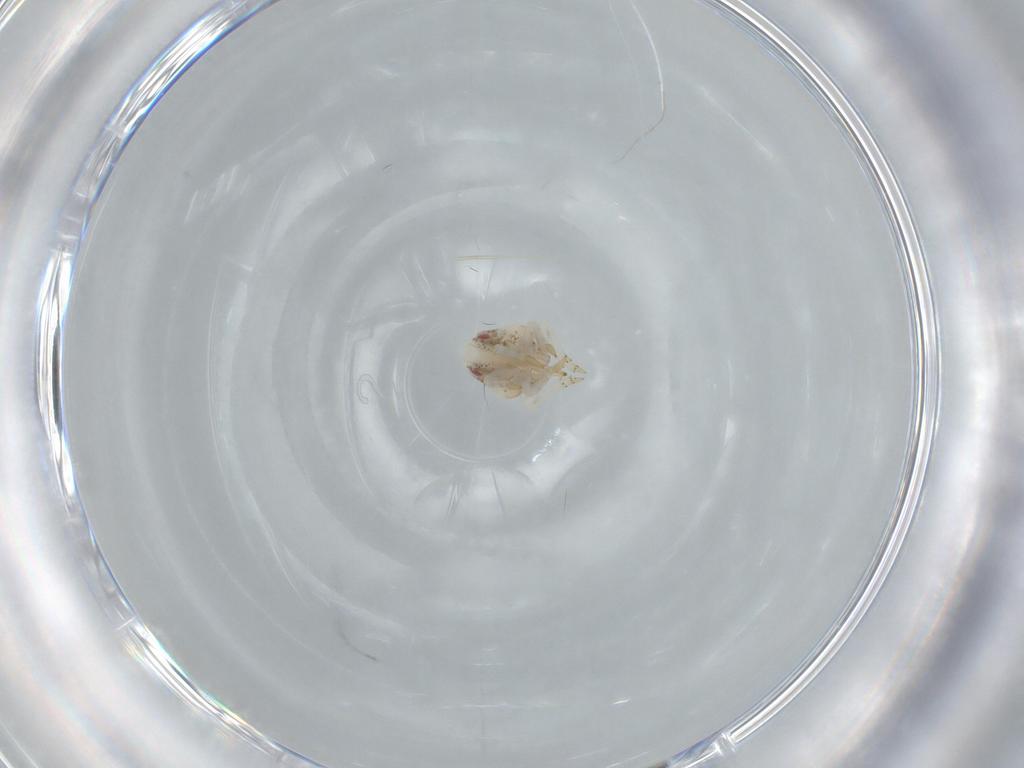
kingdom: Animalia
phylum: Arthropoda
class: Insecta
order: Hemiptera
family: Acanaloniidae
